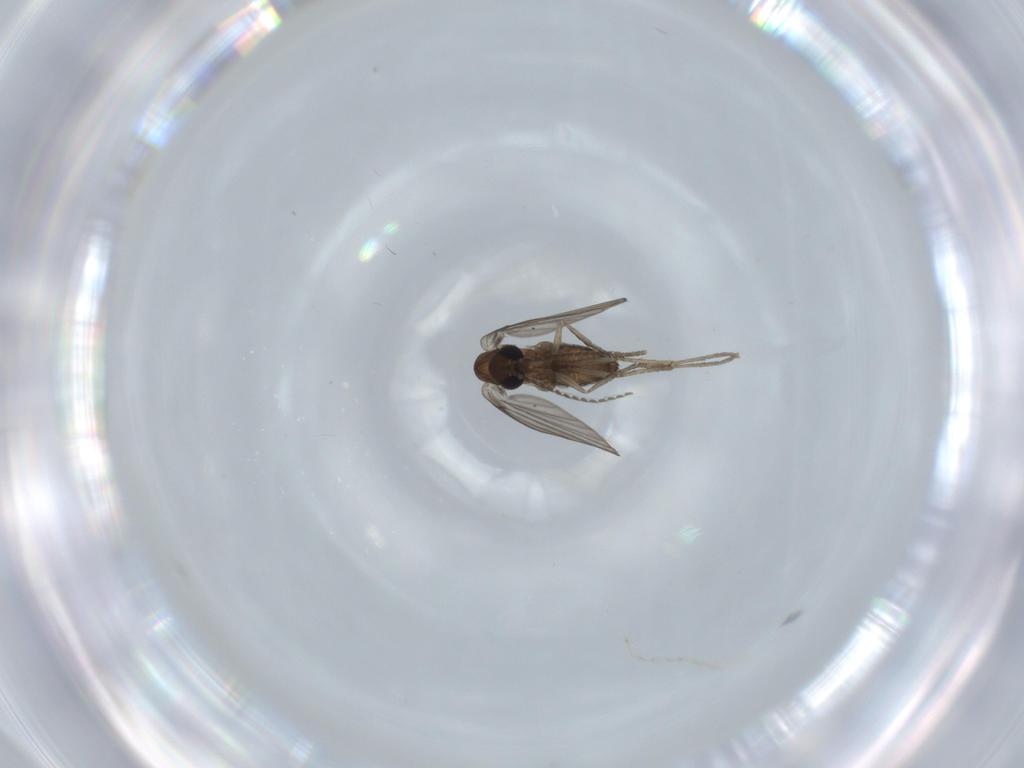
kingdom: Animalia
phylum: Arthropoda
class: Insecta
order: Diptera
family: Psychodidae
